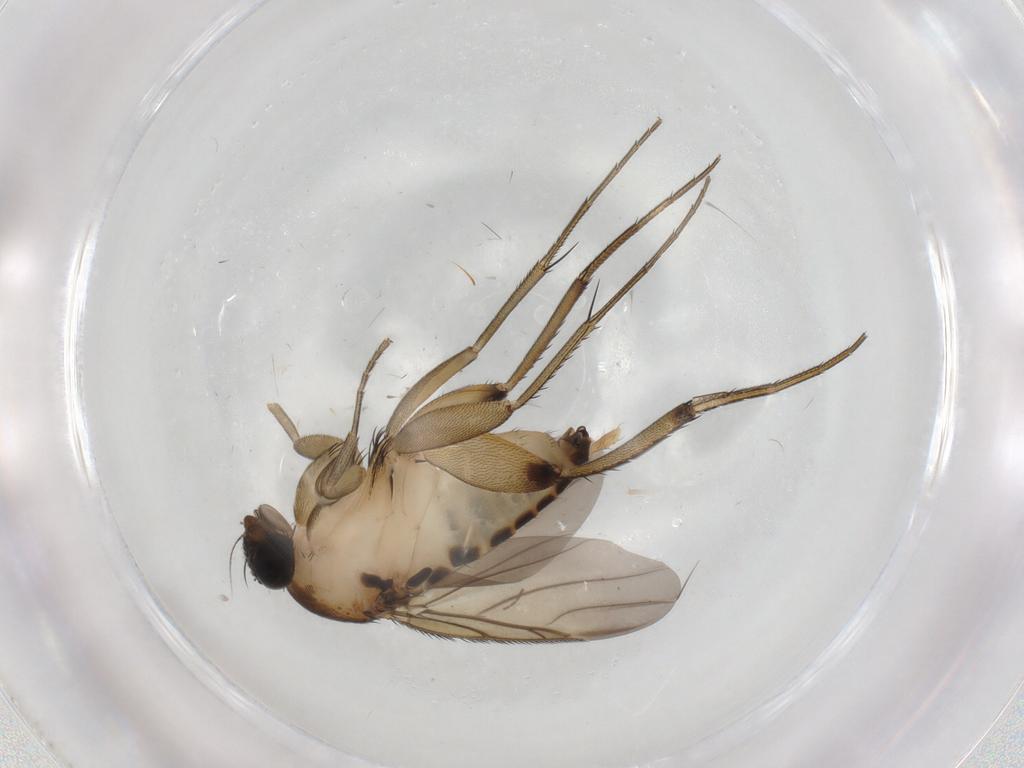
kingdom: Animalia
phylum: Arthropoda
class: Insecta
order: Diptera
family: Phoridae
